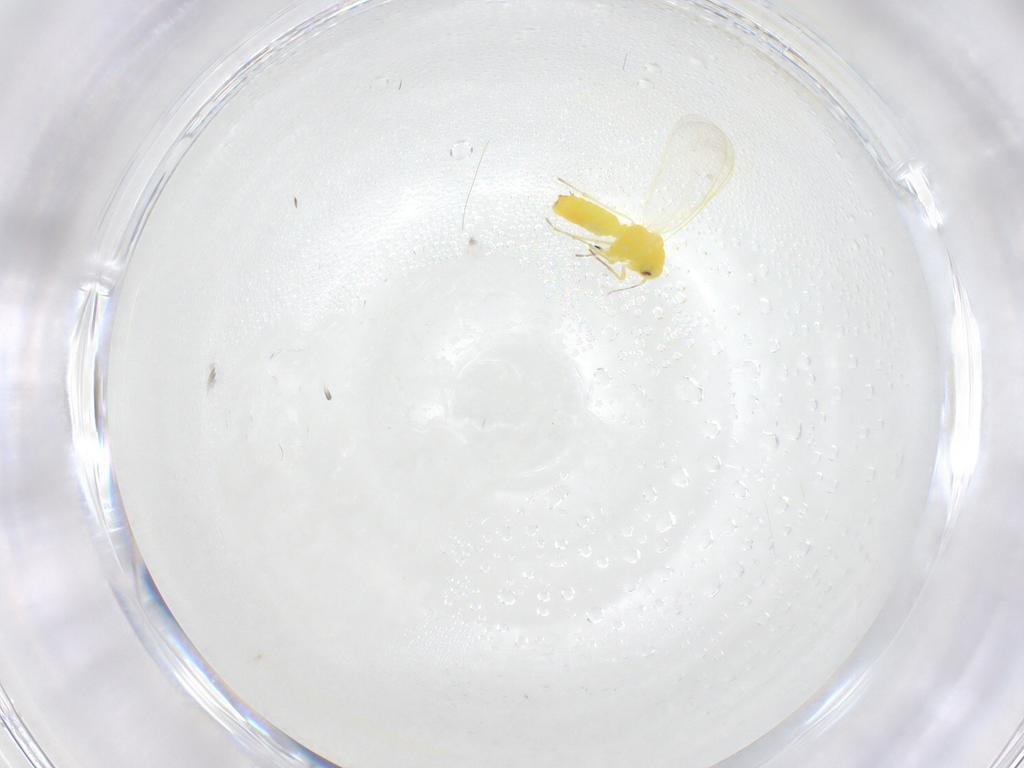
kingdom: Animalia
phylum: Arthropoda
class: Insecta
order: Hemiptera
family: Aleyrodidae
